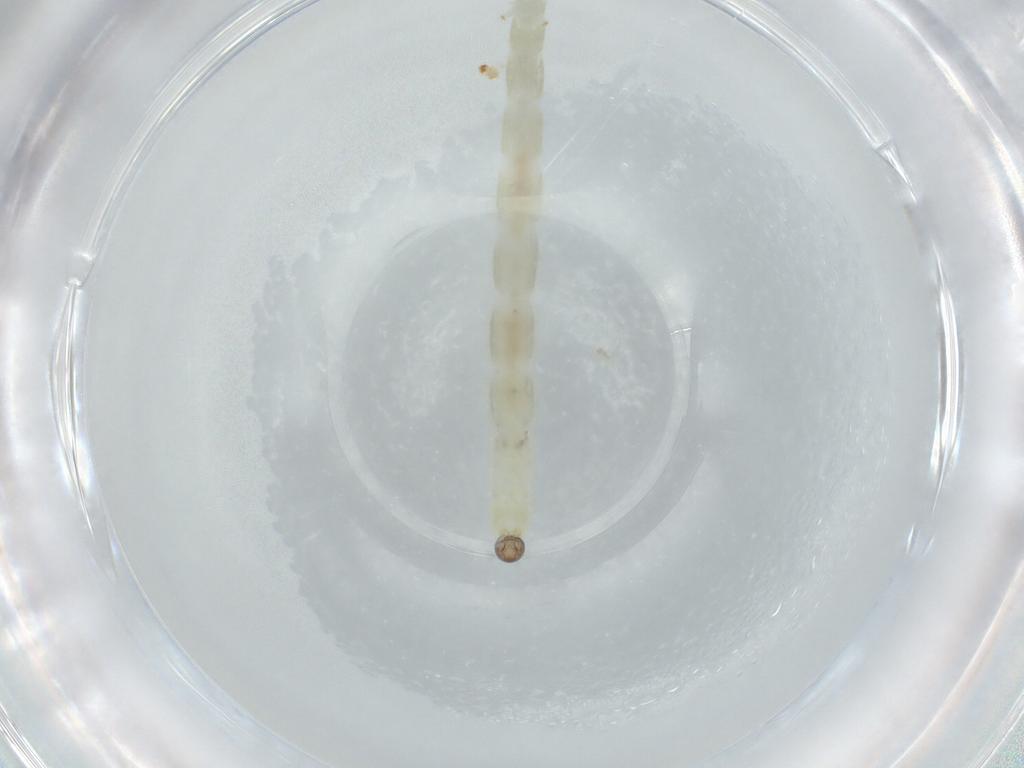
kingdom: Animalia
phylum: Arthropoda
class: Insecta
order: Diptera
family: Chironomidae
